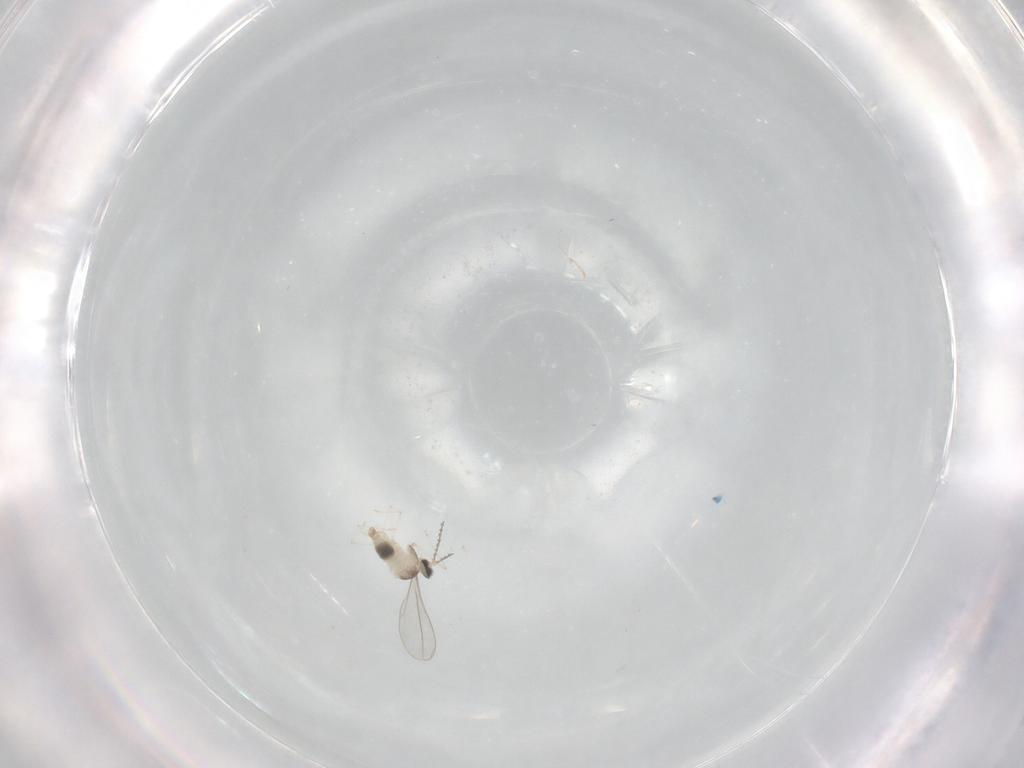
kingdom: Animalia
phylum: Arthropoda
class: Insecta
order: Diptera
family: Cecidomyiidae
